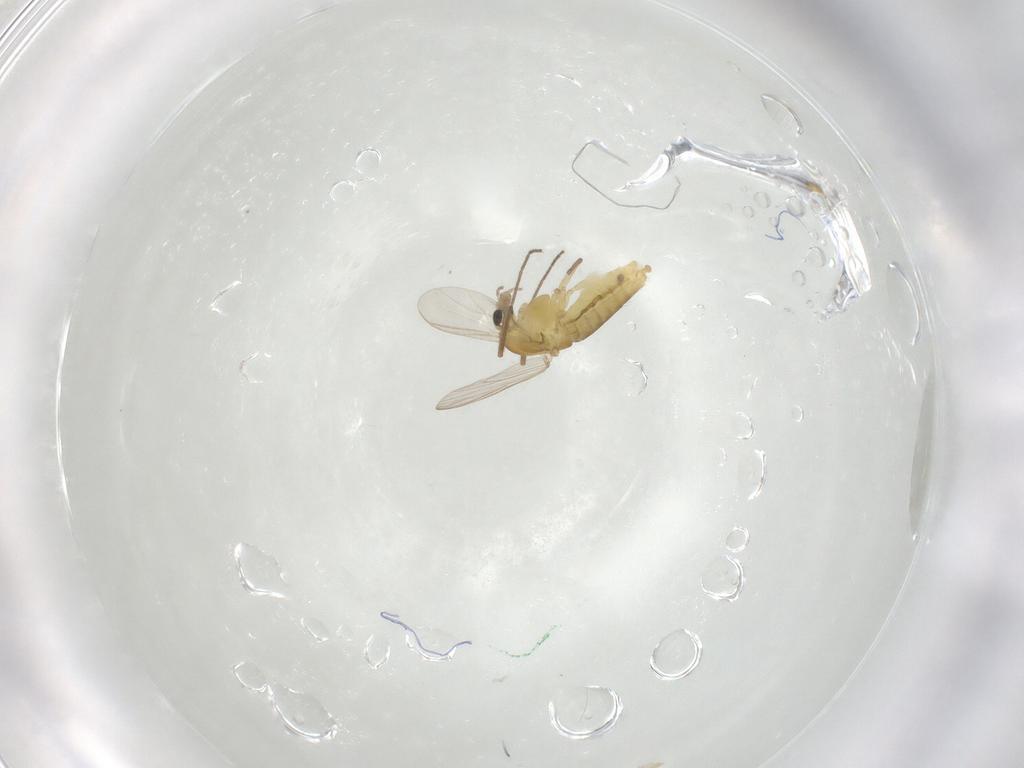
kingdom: Animalia
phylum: Arthropoda
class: Insecta
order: Diptera
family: Chironomidae
